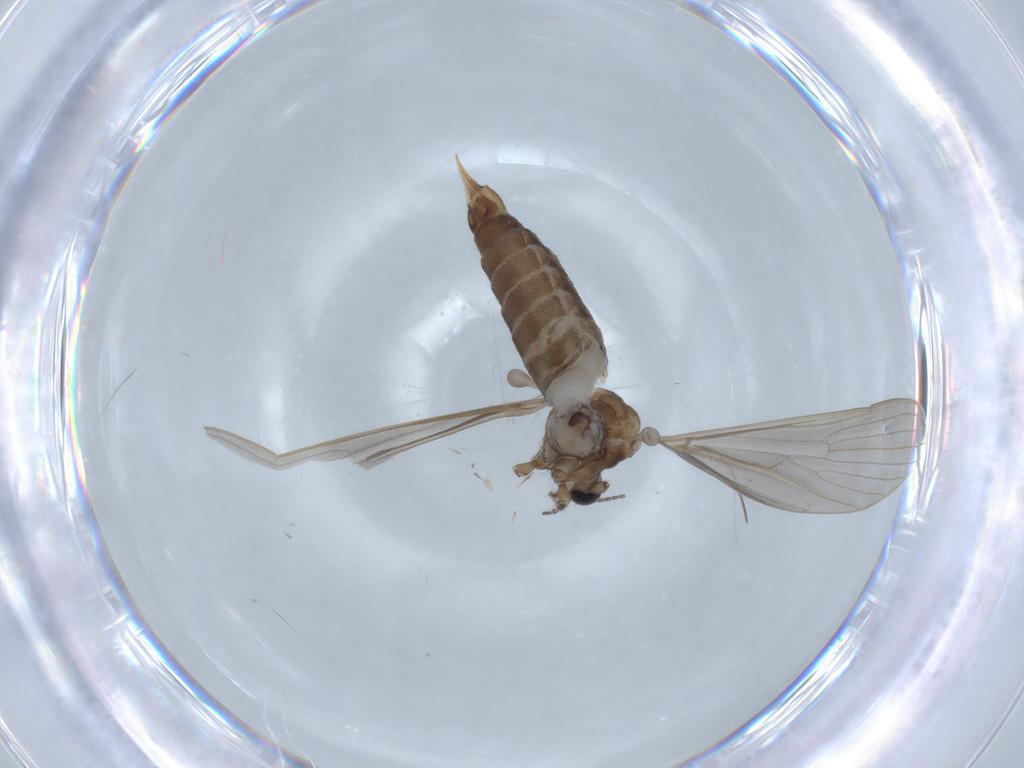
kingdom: Animalia
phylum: Arthropoda
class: Insecta
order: Diptera
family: Limoniidae
